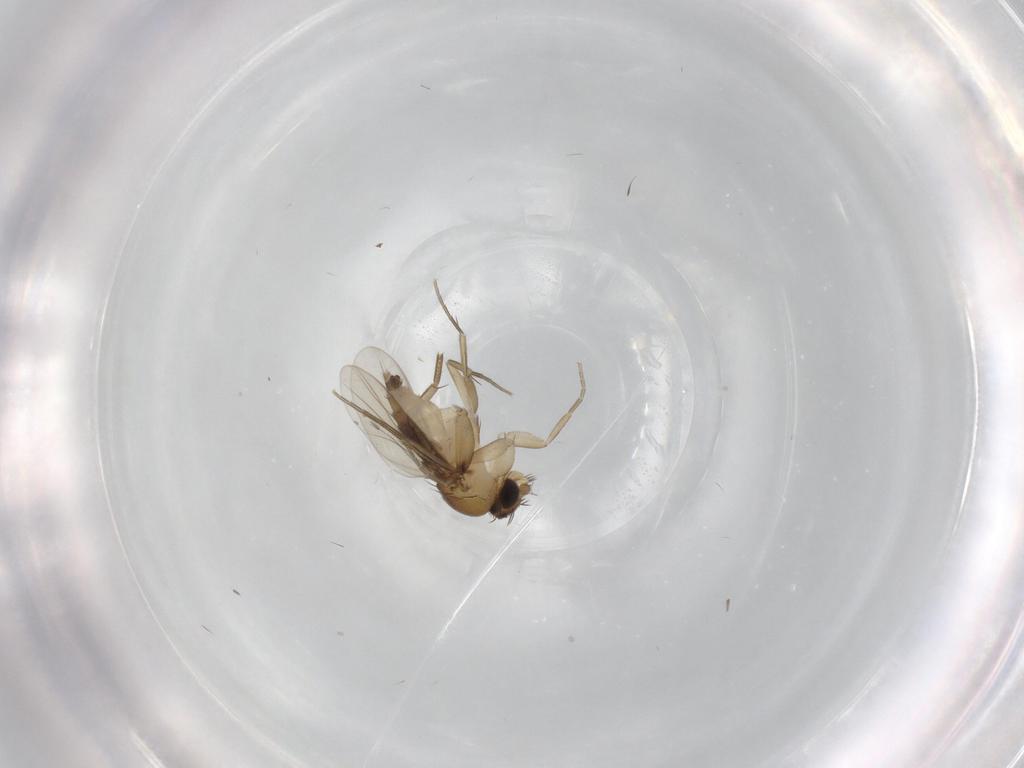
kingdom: Animalia
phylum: Arthropoda
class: Insecta
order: Diptera
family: Phoridae
